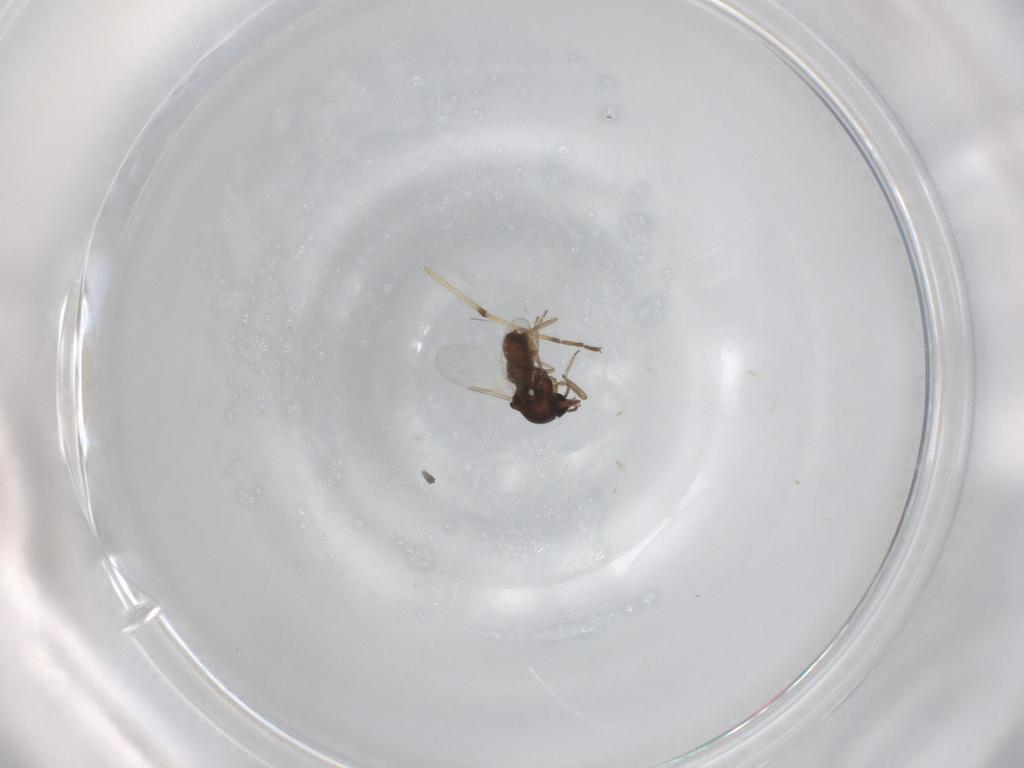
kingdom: Animalia
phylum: Arthropoda
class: Insecta
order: Diptera
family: Ceratopogonidae
